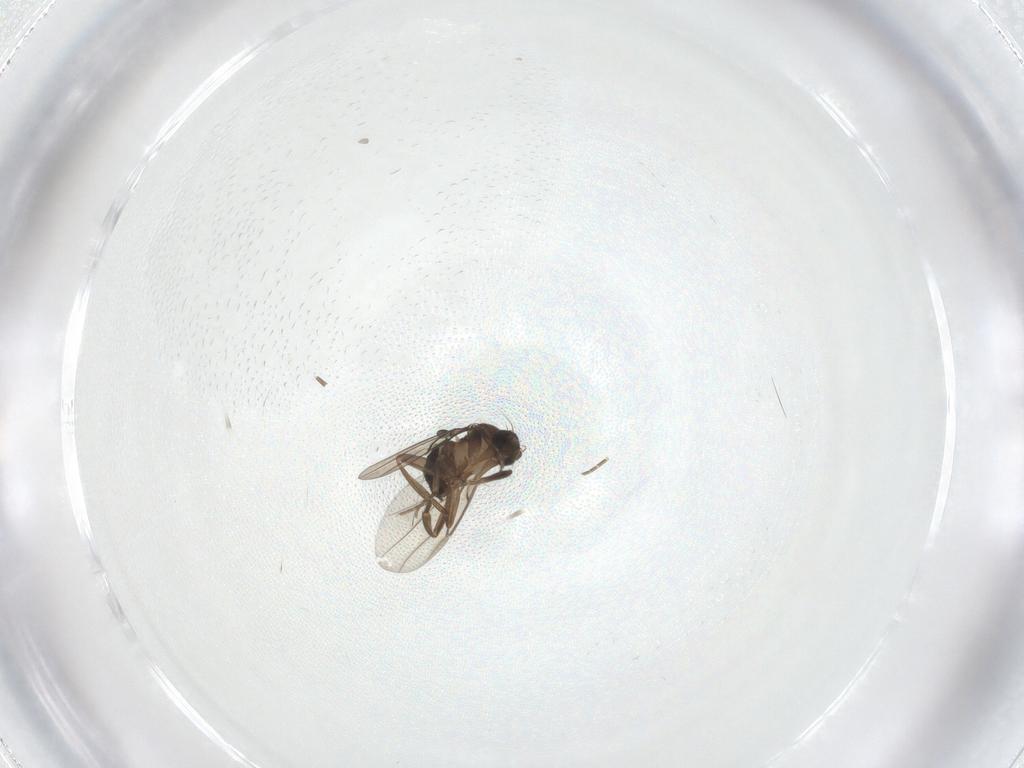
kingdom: Animalia
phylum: Arthropoda
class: Insecta
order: Diptera
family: Phoridae
